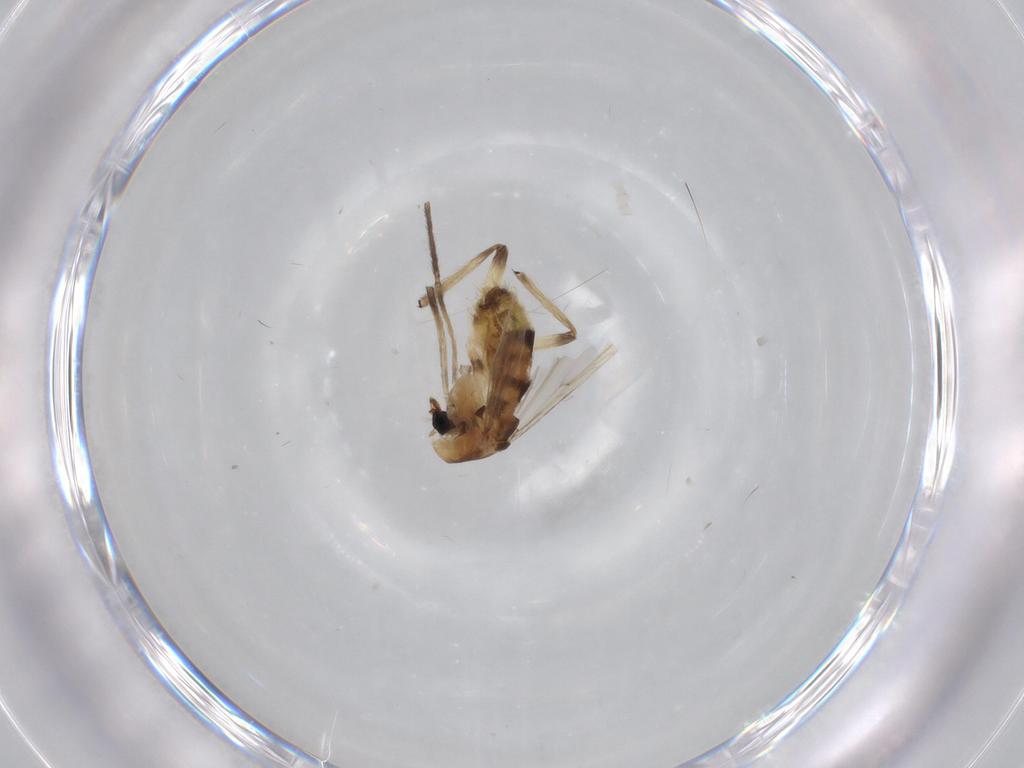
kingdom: Animalia
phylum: Arthropoda
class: Insecta
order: Diptera
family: Chironomidae
